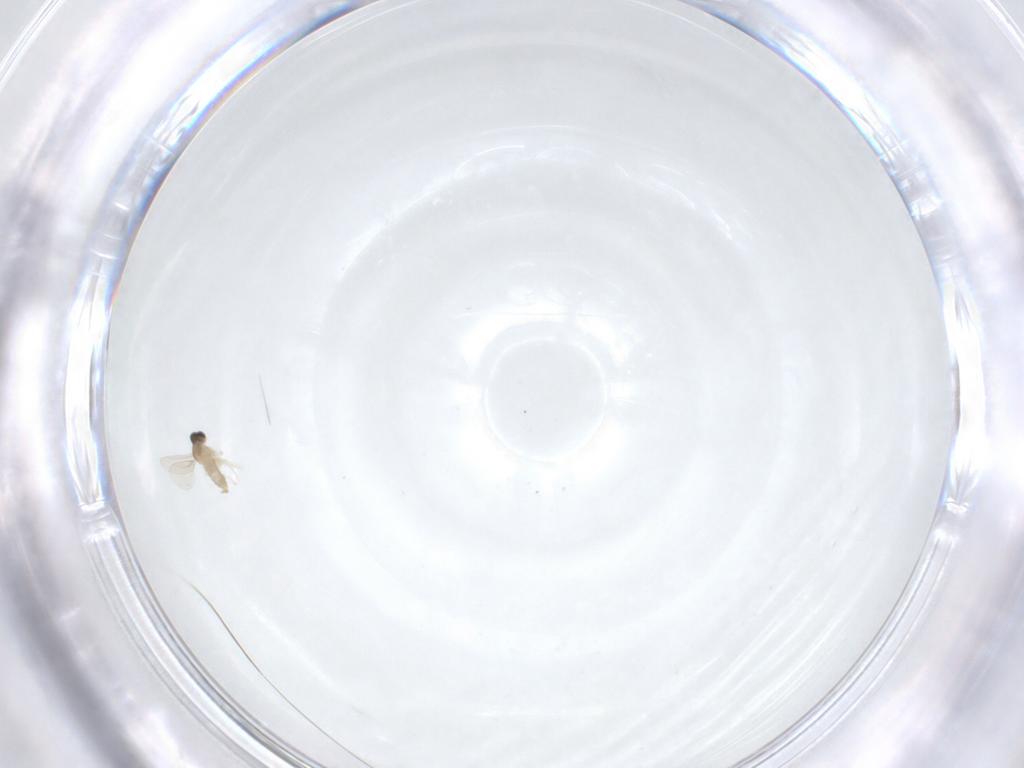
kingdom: Animalia
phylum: Arthropoda
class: Insecta
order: Diptera
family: Cecidomyiidae
